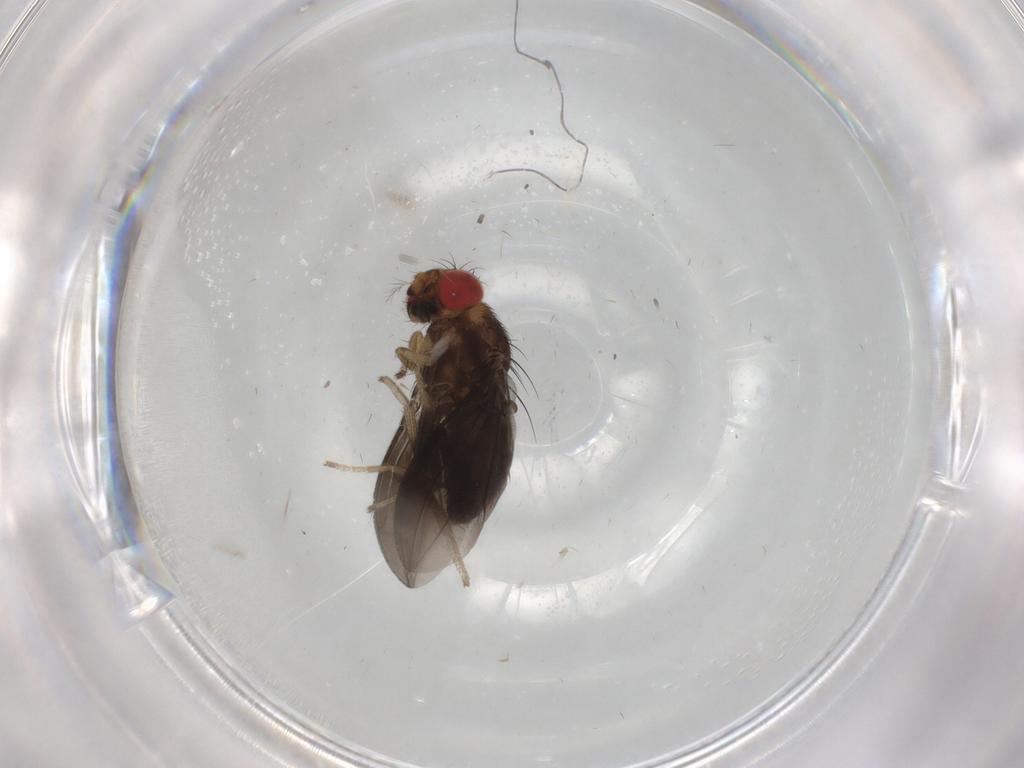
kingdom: Animalia
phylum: Arthropoda
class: Insecta
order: Diptera
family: Drosophilidae
